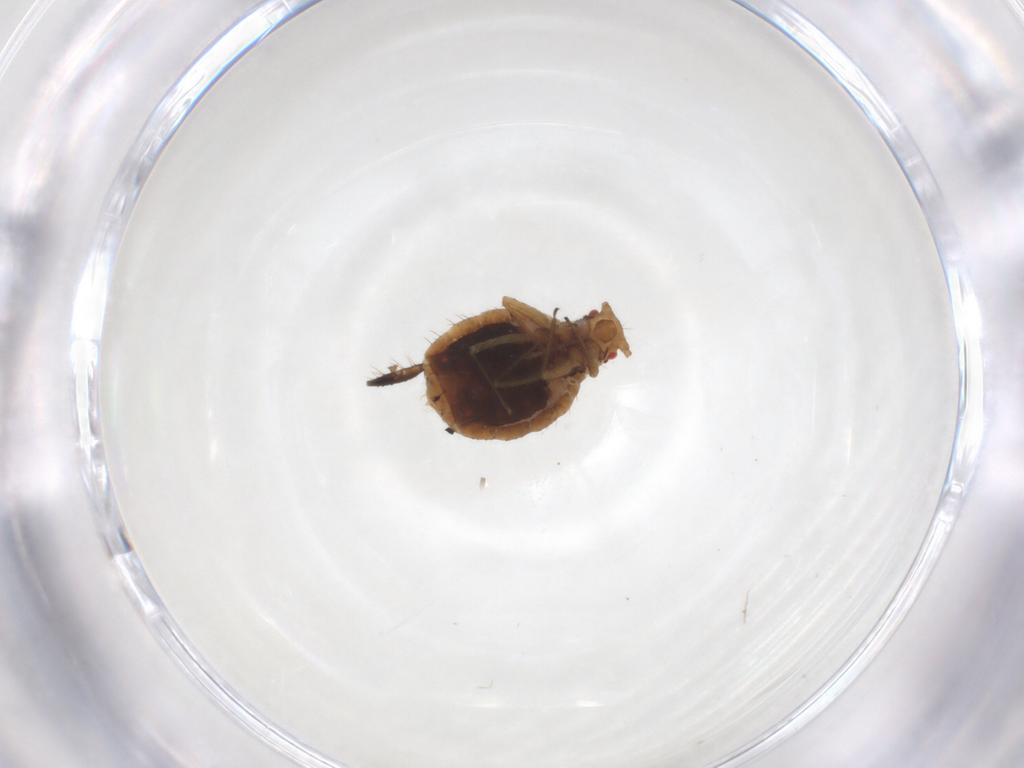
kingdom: Animalia
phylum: Arthropoda
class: Insecta
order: Hemiptera
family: Aphididae
